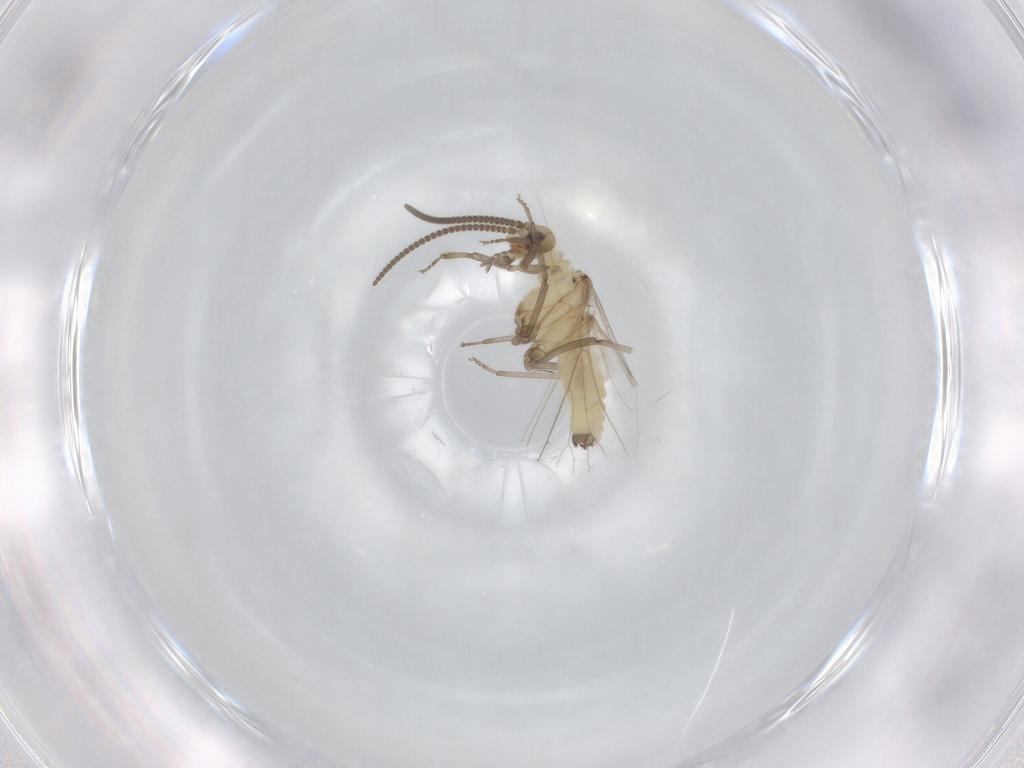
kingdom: Animalia
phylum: Arthropoda
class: Insecta
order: Neuroptera
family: Coniopterygidae
